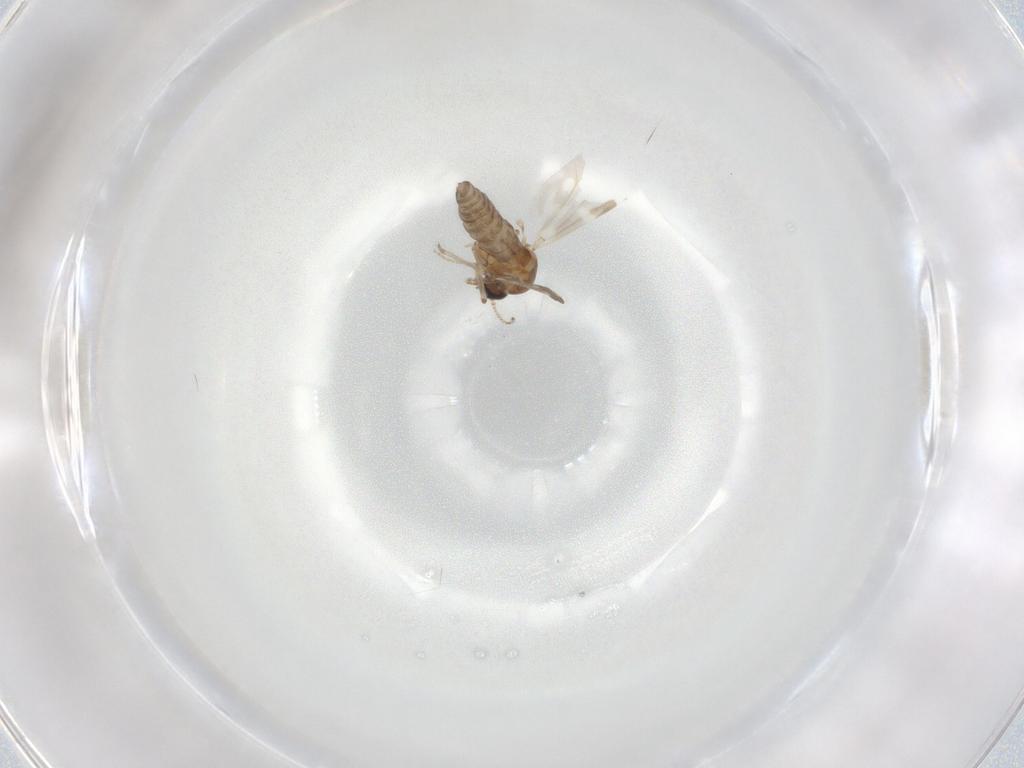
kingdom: Animalia
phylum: Arthropoda
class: Insecta
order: Diptera
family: Ceratopogonidae
